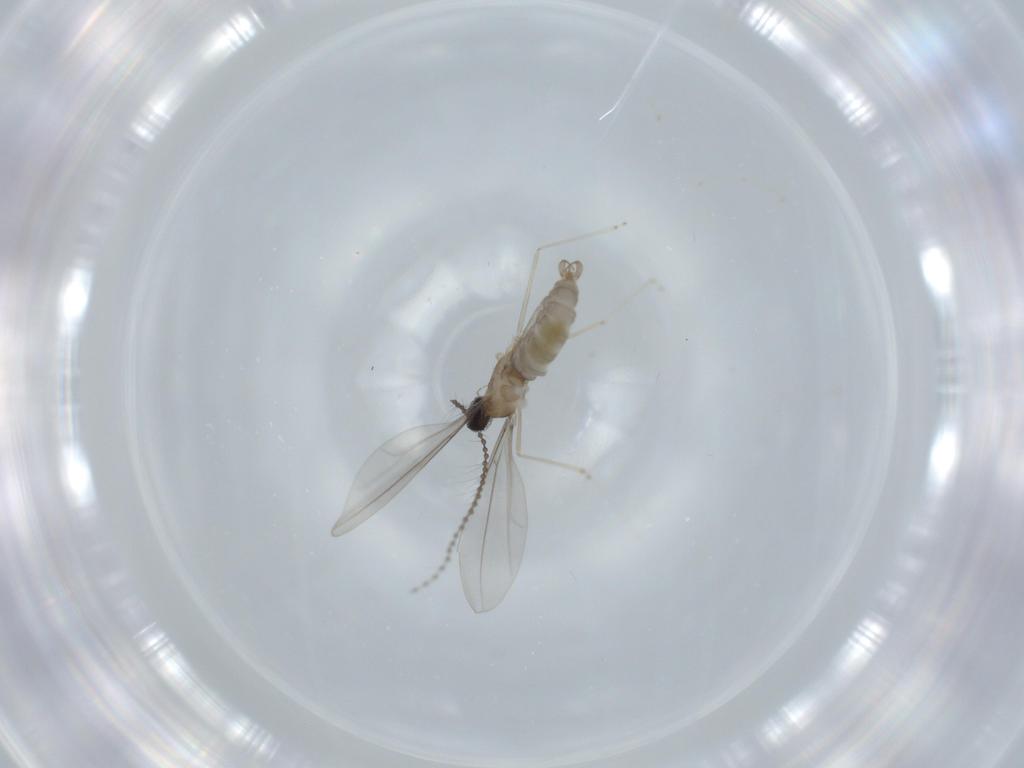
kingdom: Animalia
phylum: Arthropoda
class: Insecta
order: Diptera
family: Cecidomyiidae
